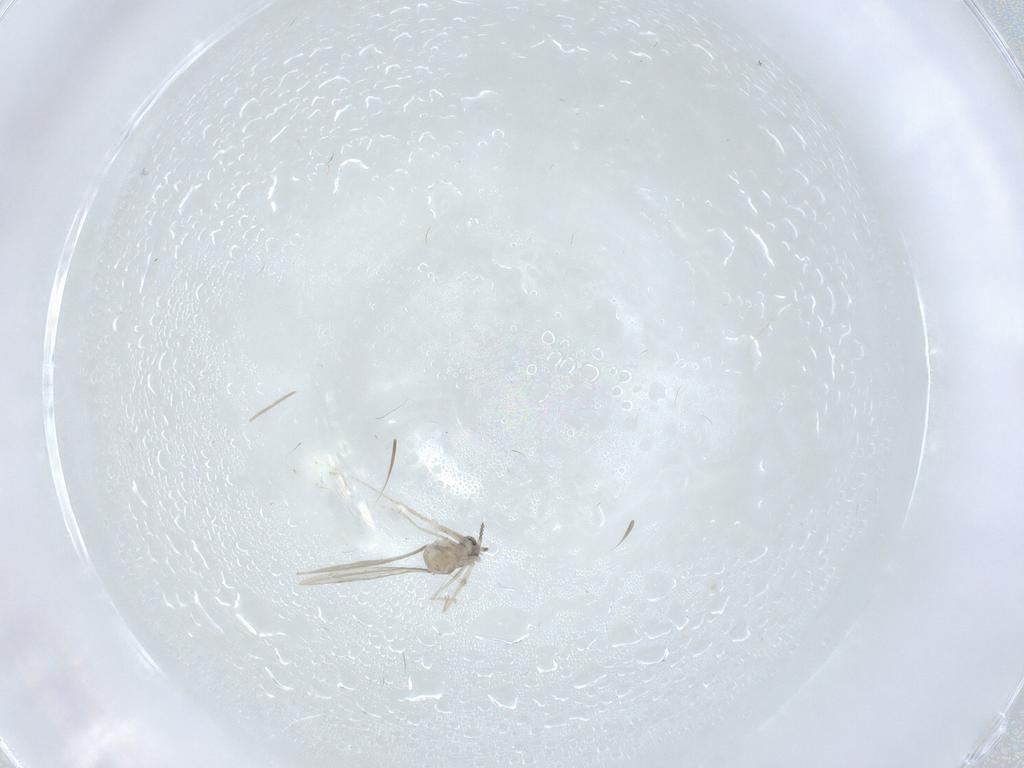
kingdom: Animalia
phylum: Arthropoda
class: Insecta
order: Diptera
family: Cecidomyiidae
